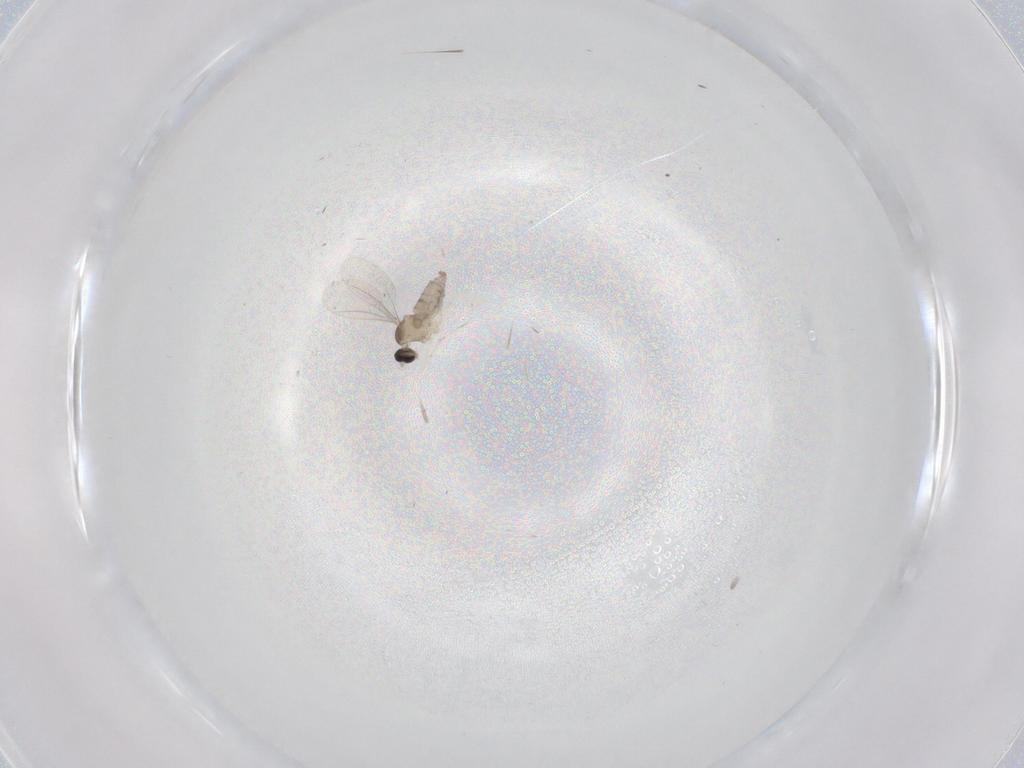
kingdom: Animalia
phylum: Arthropoda
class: Insecta
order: Diptera
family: Cecidomyiidae
